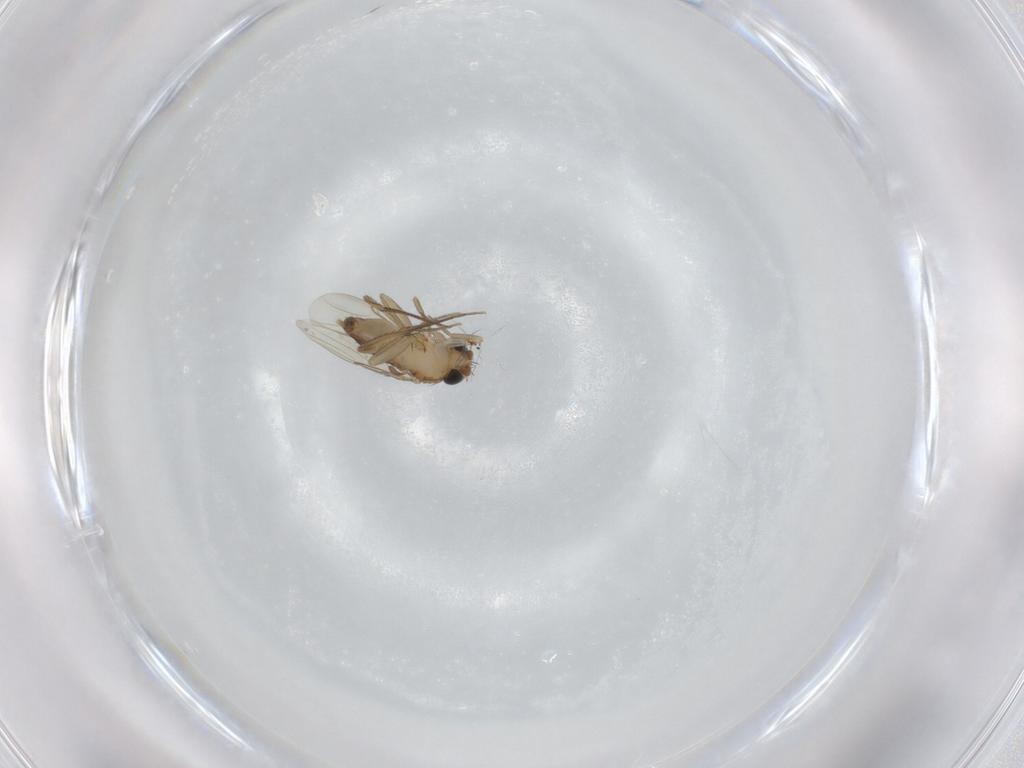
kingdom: Animalia
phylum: Arthropoda
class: Insecta
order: Diptera
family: Phoridae
